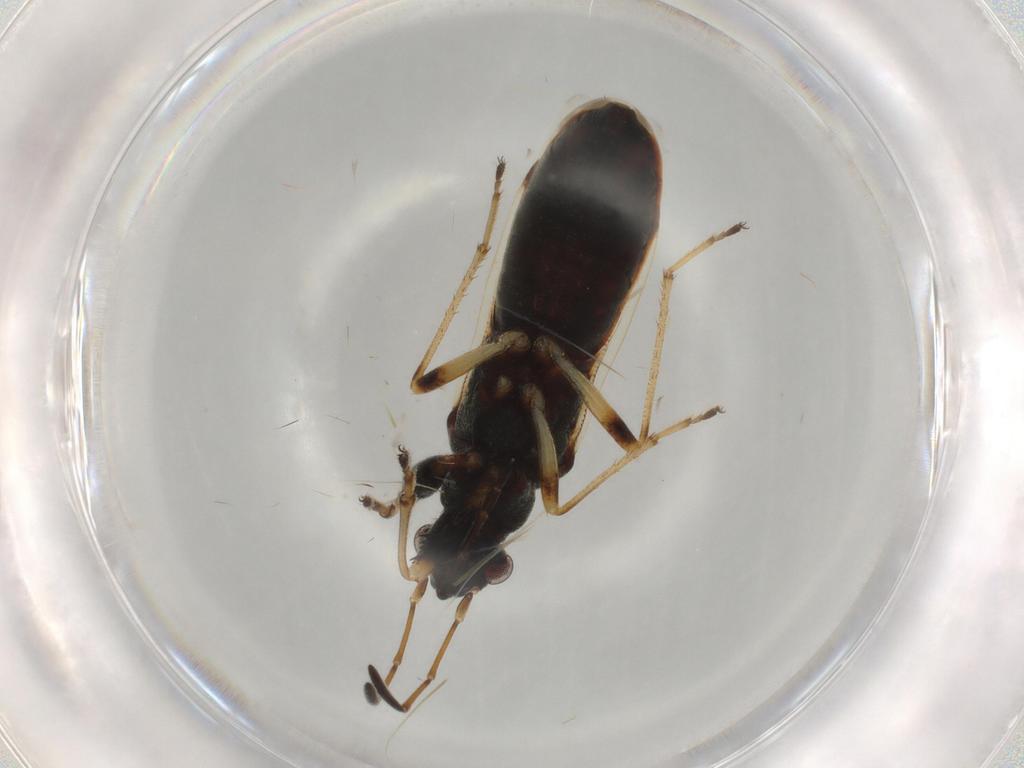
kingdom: Animalia
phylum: Arthropoda
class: Insecta
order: Hemiptera
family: Rhyparochromidae
